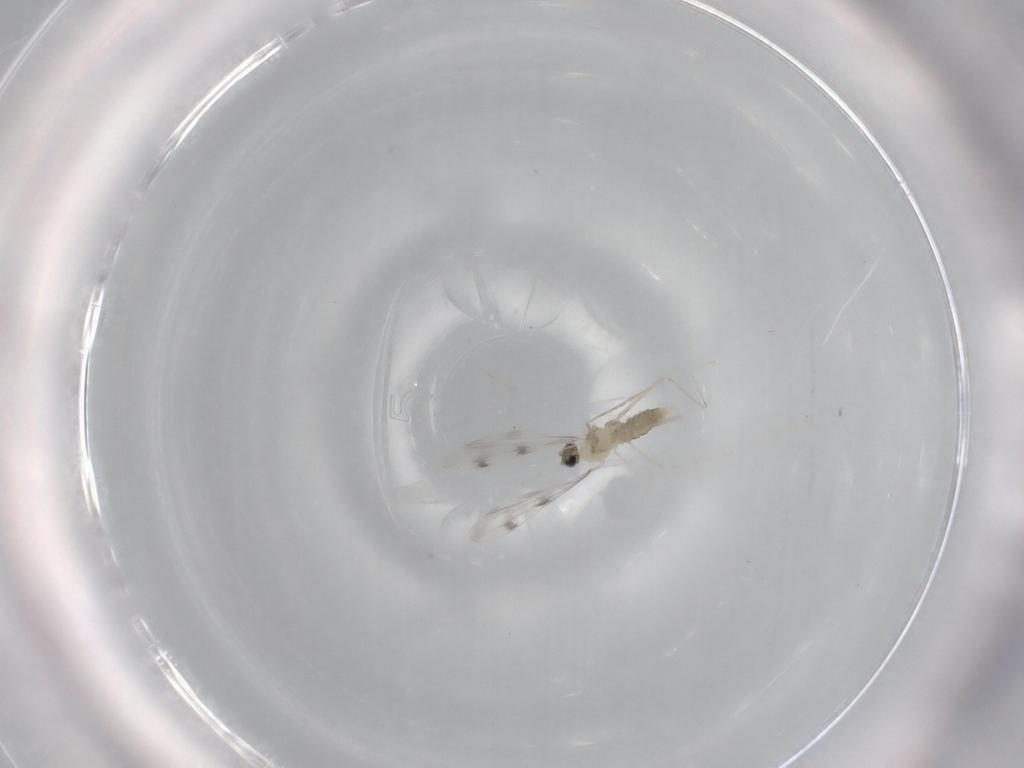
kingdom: Animalia
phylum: Arthropoda
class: Insecta
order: Diptera
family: Cecidomyiidae
